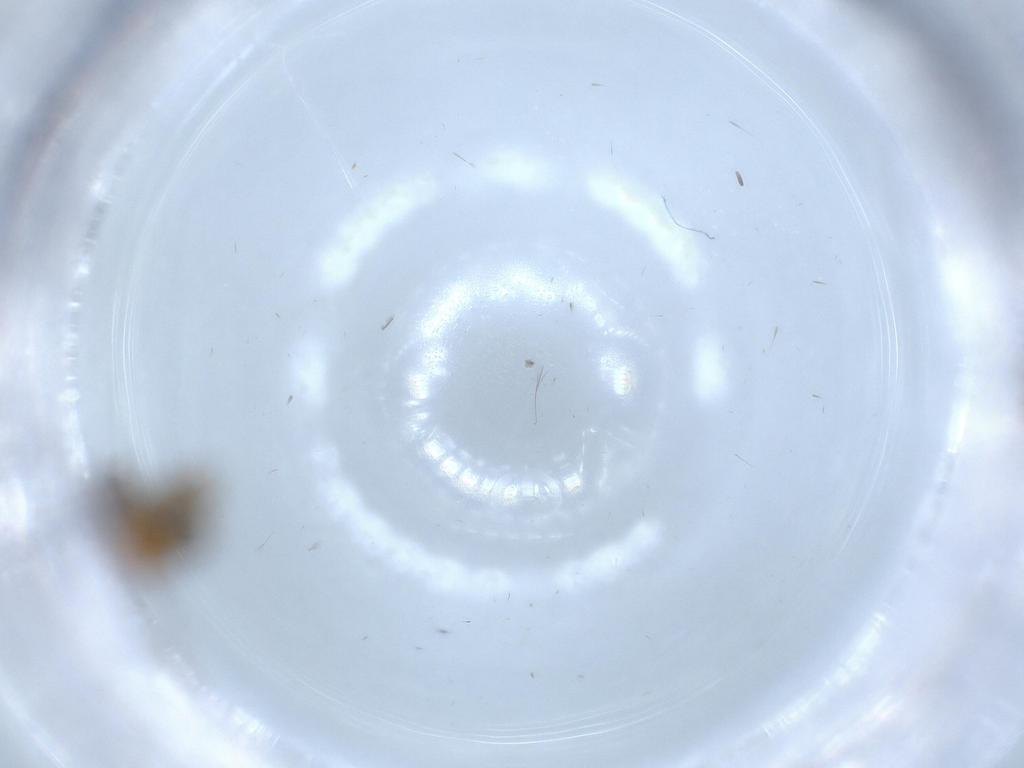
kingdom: Animalia
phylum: Arthropoda
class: Insecta
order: Diptera
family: Sciaridae
